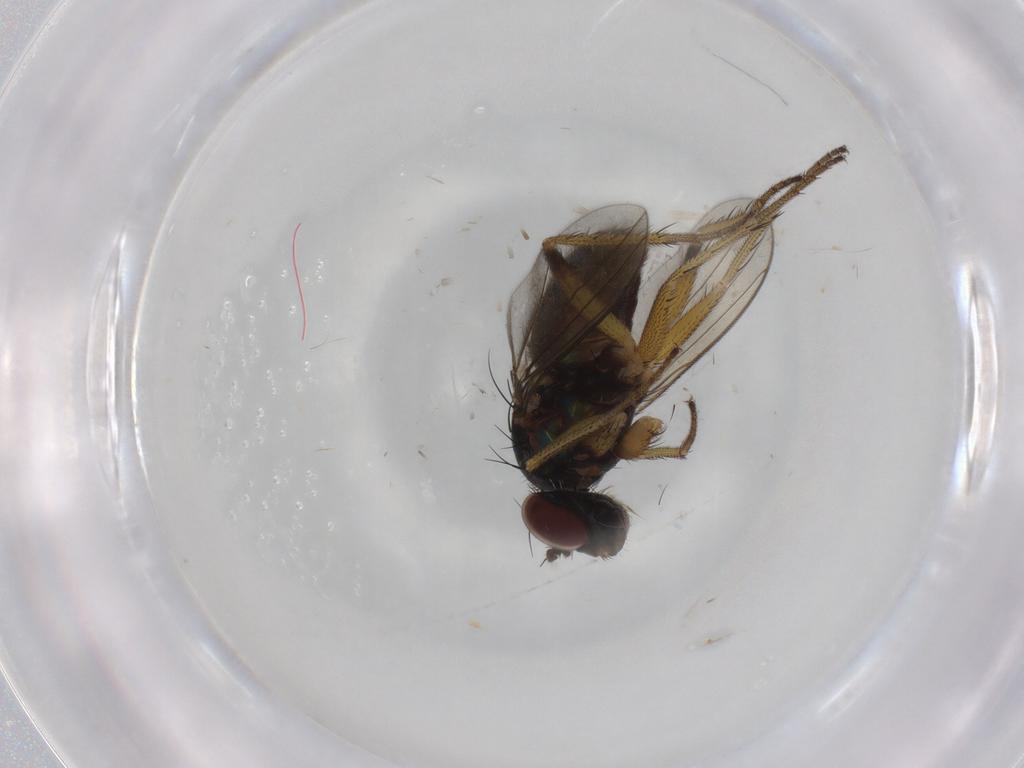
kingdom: Animalia
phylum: Arthropoda
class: Insecta
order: Diptera
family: Dolichopodidae
